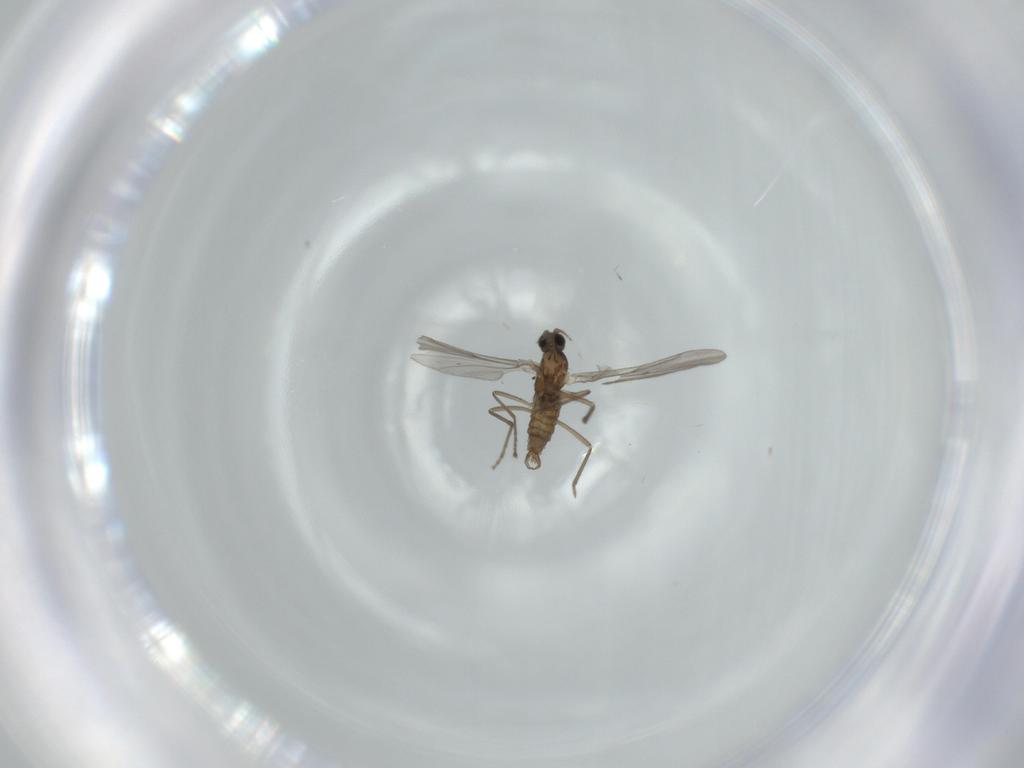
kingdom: Animalia
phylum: Arthropoda
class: Insecta
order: Diptera
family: Cecidomyiidae
